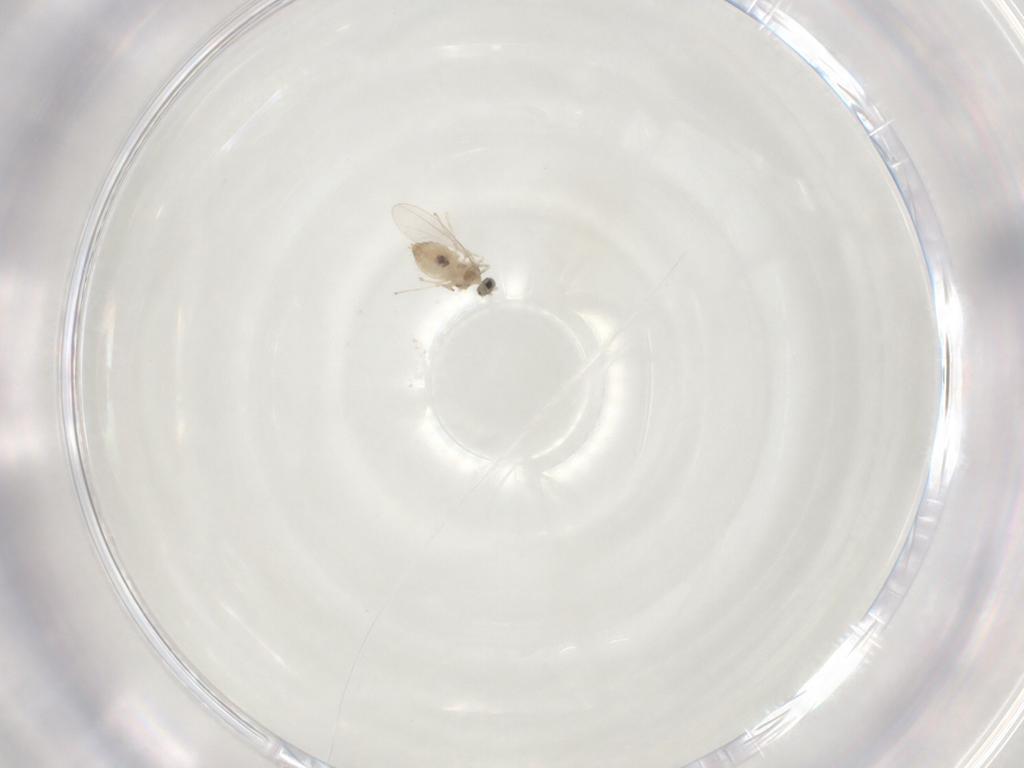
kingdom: Animalia
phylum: Arthropoda
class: Insecta
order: Diptera
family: Cecidomyiidae
